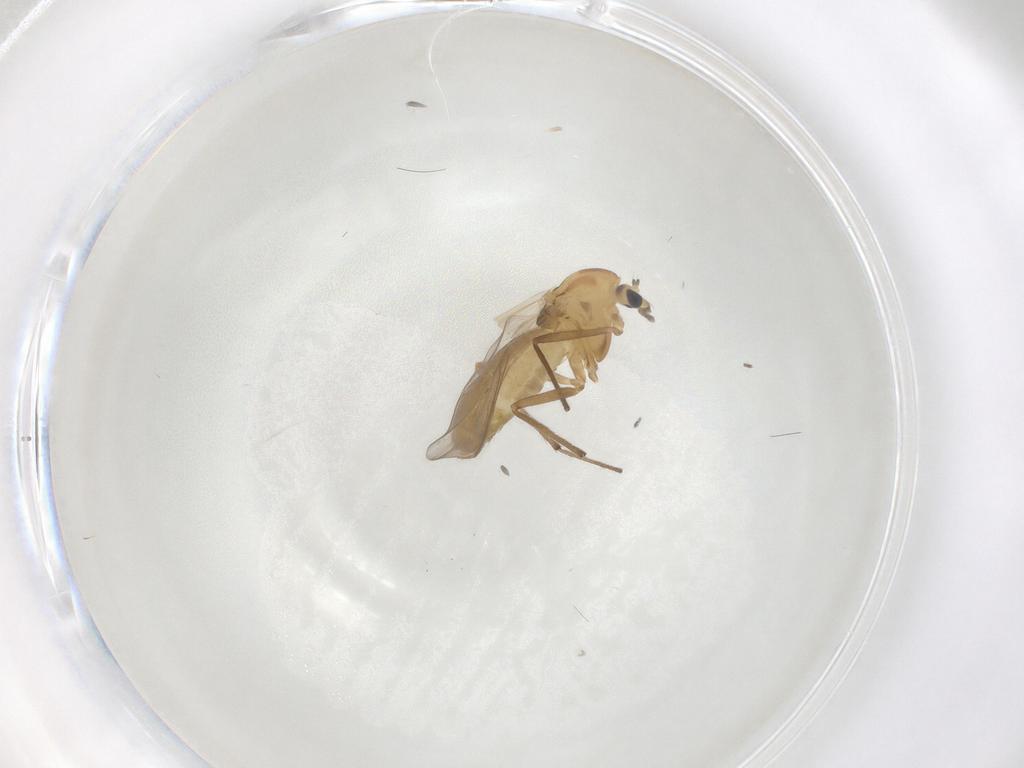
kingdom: Animalia
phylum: Arthropoda
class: Insecta
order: Diptera
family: Chironomidae
